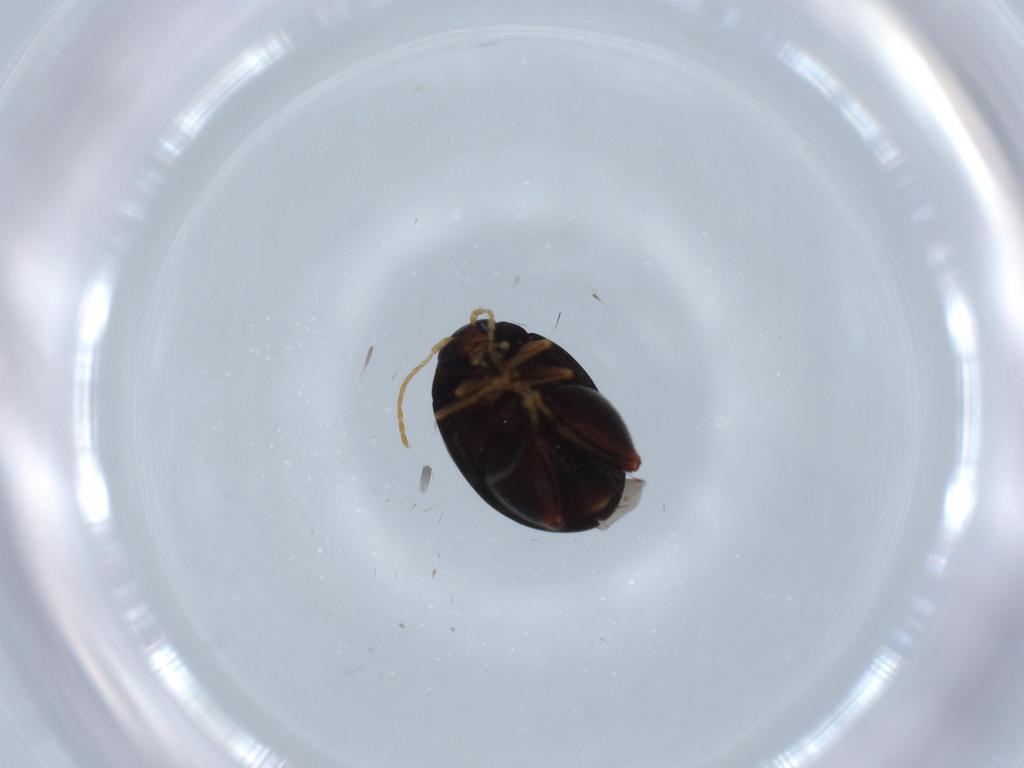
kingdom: Animalia
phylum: Arthropoda
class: Insecta
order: Coleoptera
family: Chrysomelidae
